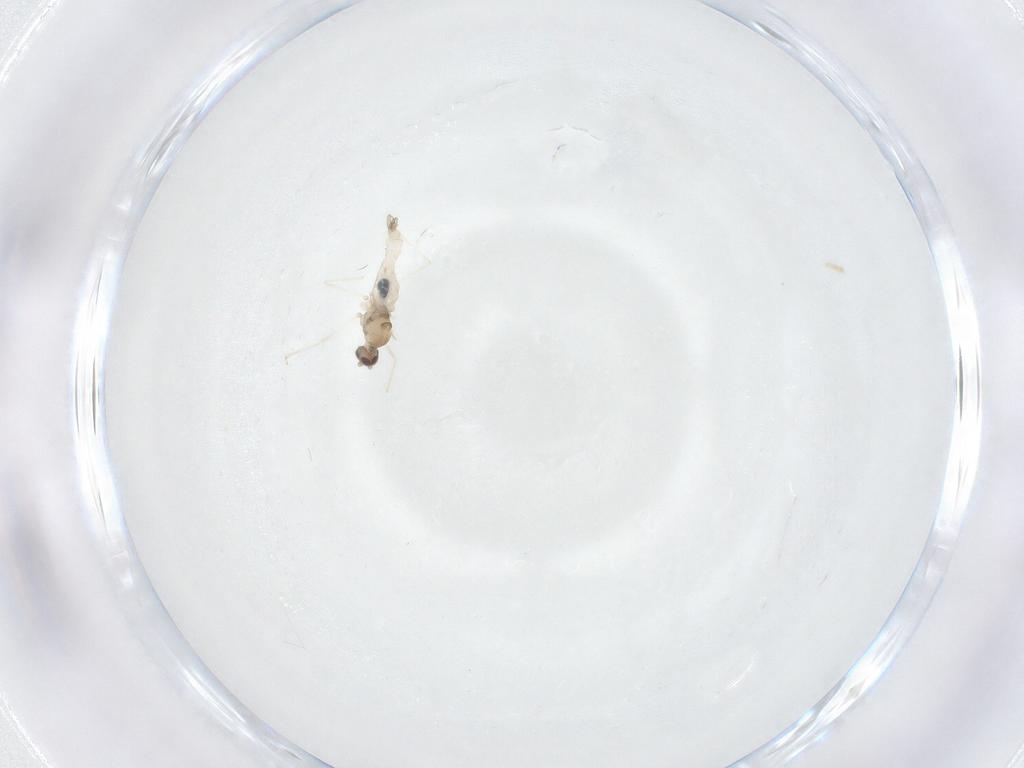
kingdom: Animalia
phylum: Arthropoda
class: Insecta
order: Diptera
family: Cecidomyiidae
